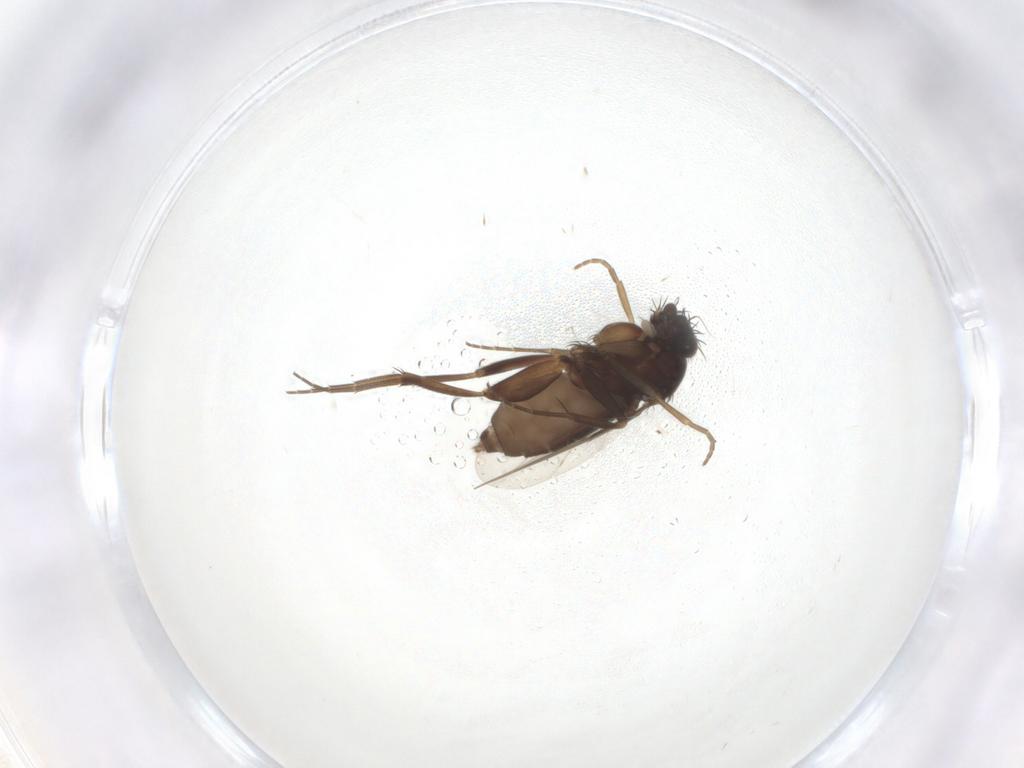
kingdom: Animalia
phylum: Arthropoda
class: Insecta
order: Diptera
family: Phoridae
